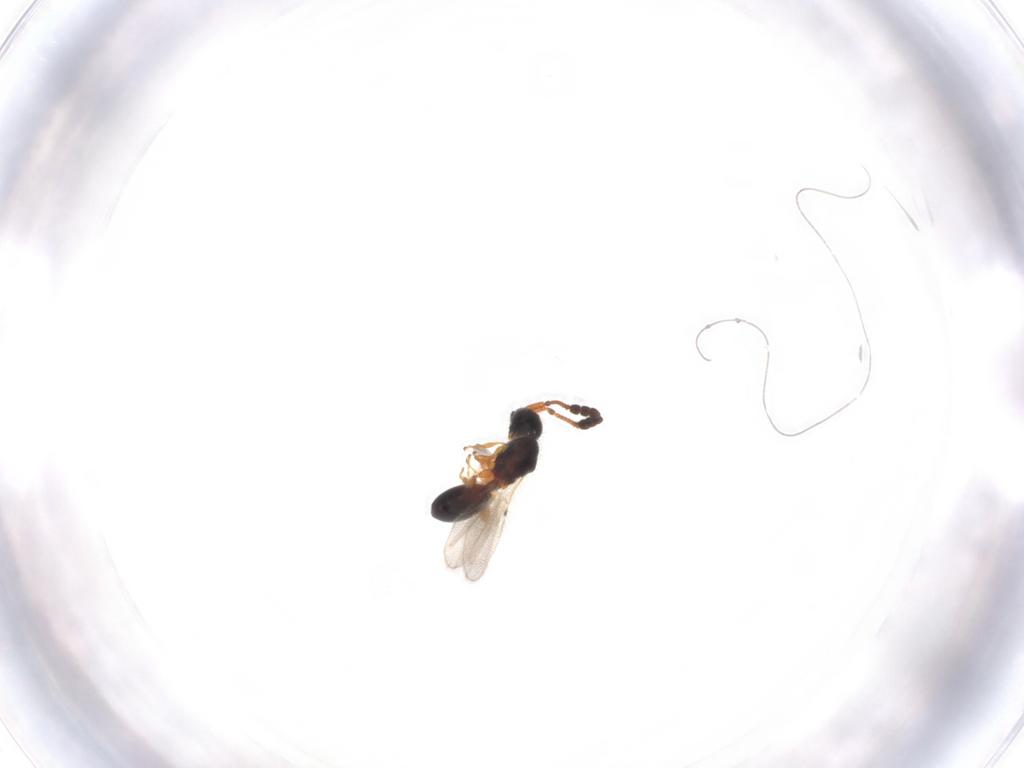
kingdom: Animalia
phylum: Arthropoda
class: Insecta
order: Hymenoptera
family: Diapriidae
